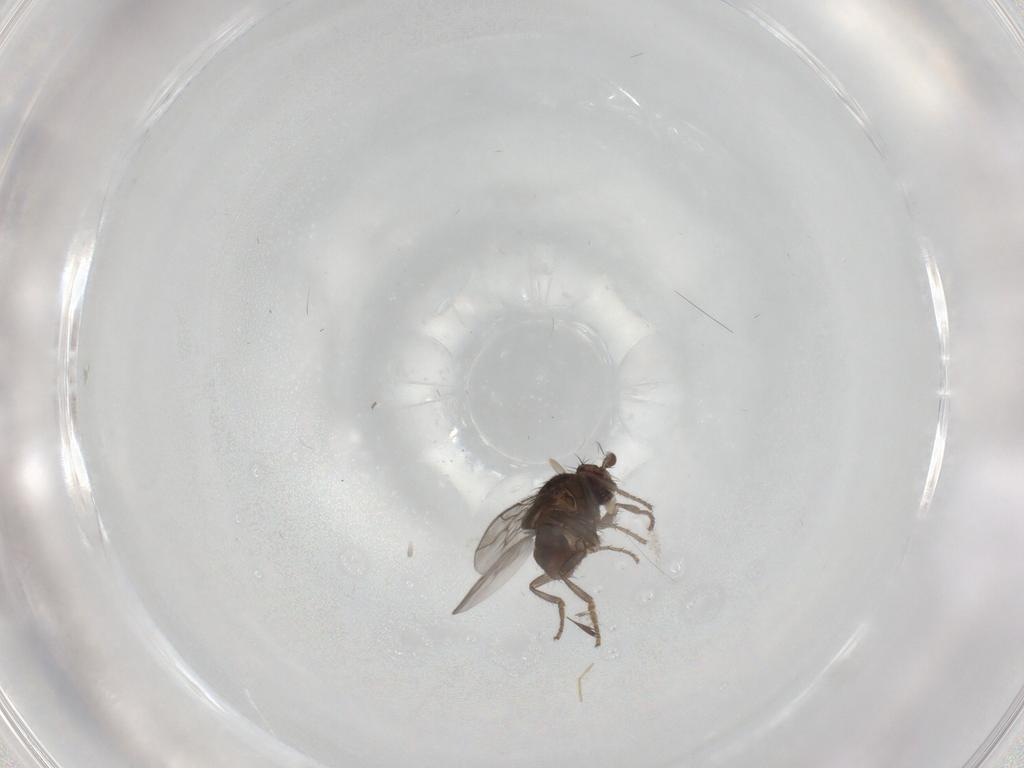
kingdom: Animalia
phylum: Arthropoda
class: Insecta
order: Diptera
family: Sphaeroceridae
